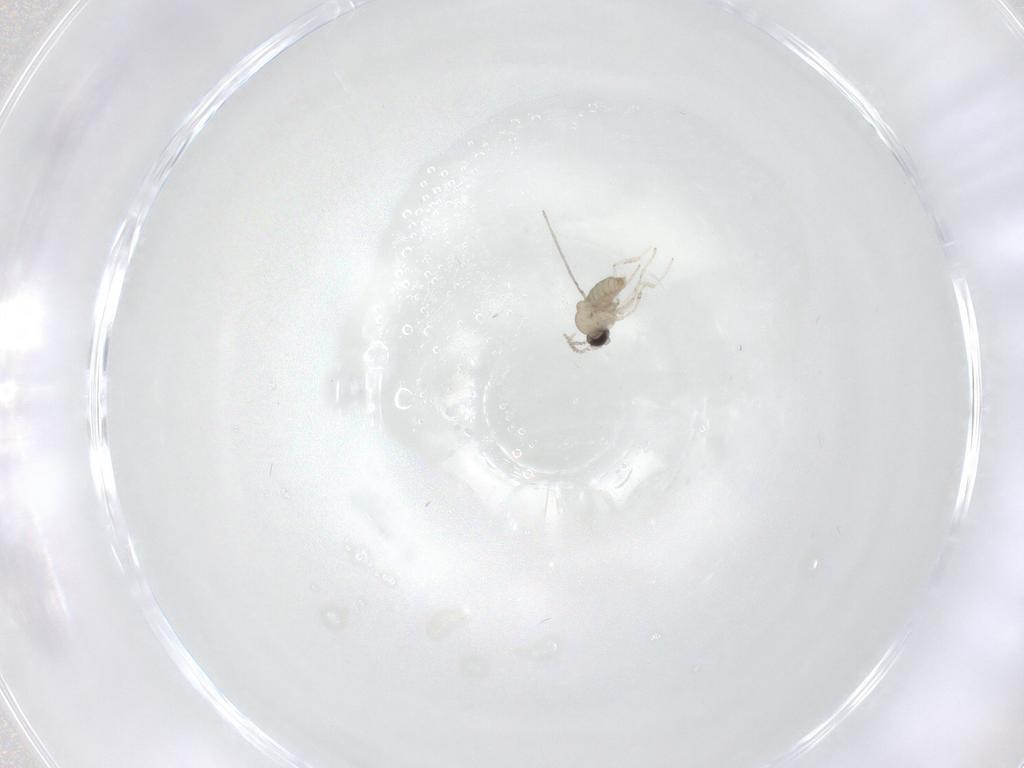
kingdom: Animalia
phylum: Arthropoda
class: Insecta
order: Diptera
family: Cecidomyiidae
